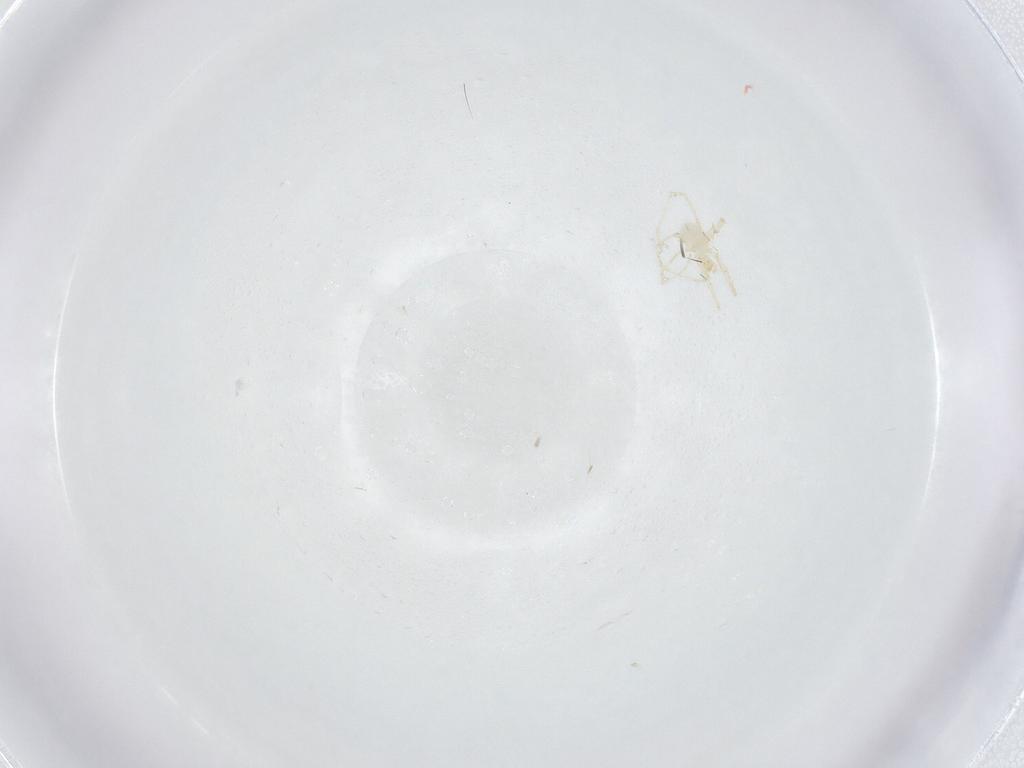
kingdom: Animalia
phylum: Arthropoda
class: Arachnida
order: Trombidiformes
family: Erythraeidae
